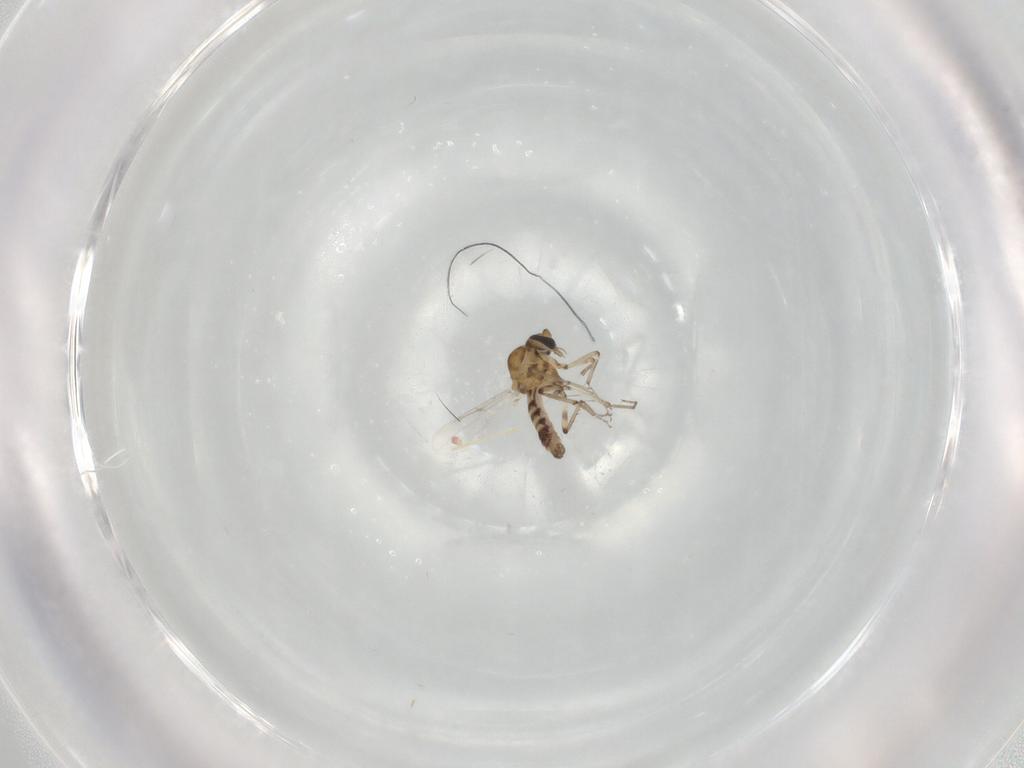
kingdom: Animalia
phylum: Arthropoda
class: Insecta
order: Diptera
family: Ceratopogonidae
